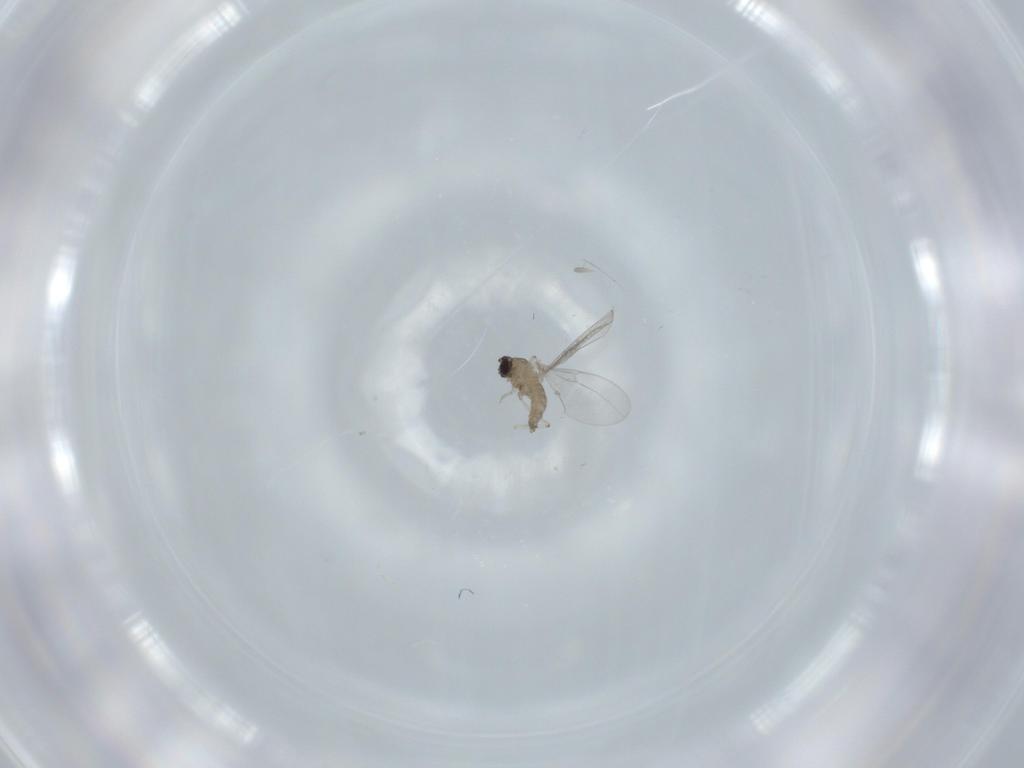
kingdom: Animalia
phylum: Arthropoda
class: Insecta
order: Diptera
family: Cecidomyiidae
